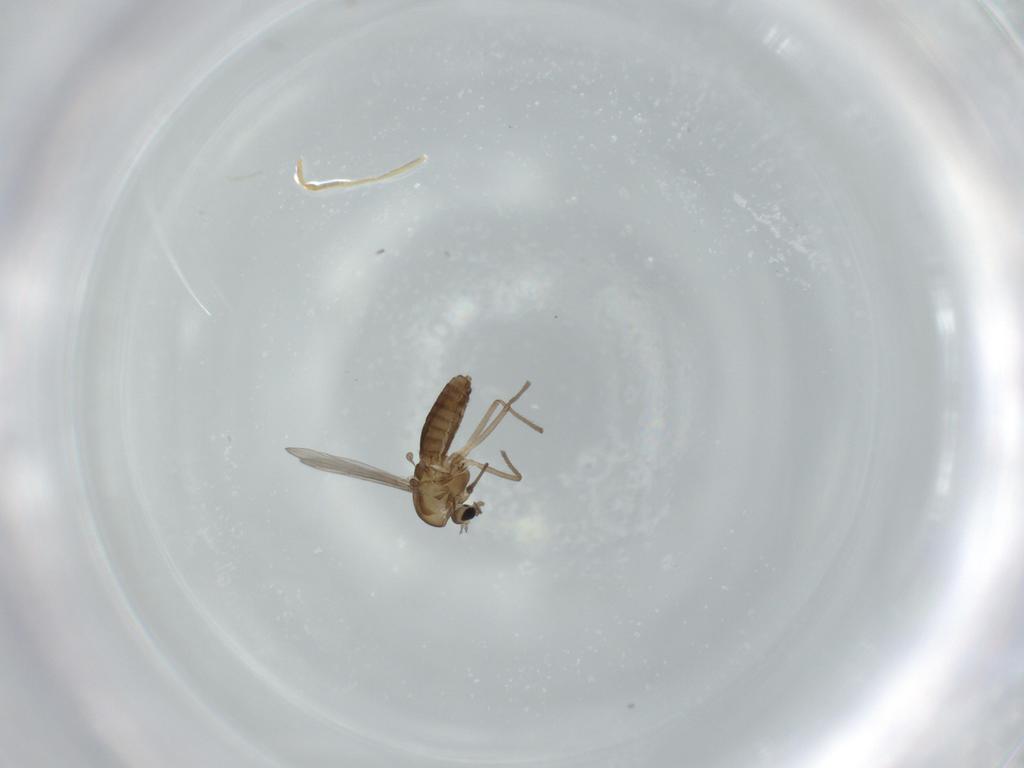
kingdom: Animalia
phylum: Arthropoda
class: Insecta
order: Diptera
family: Chironomidae
